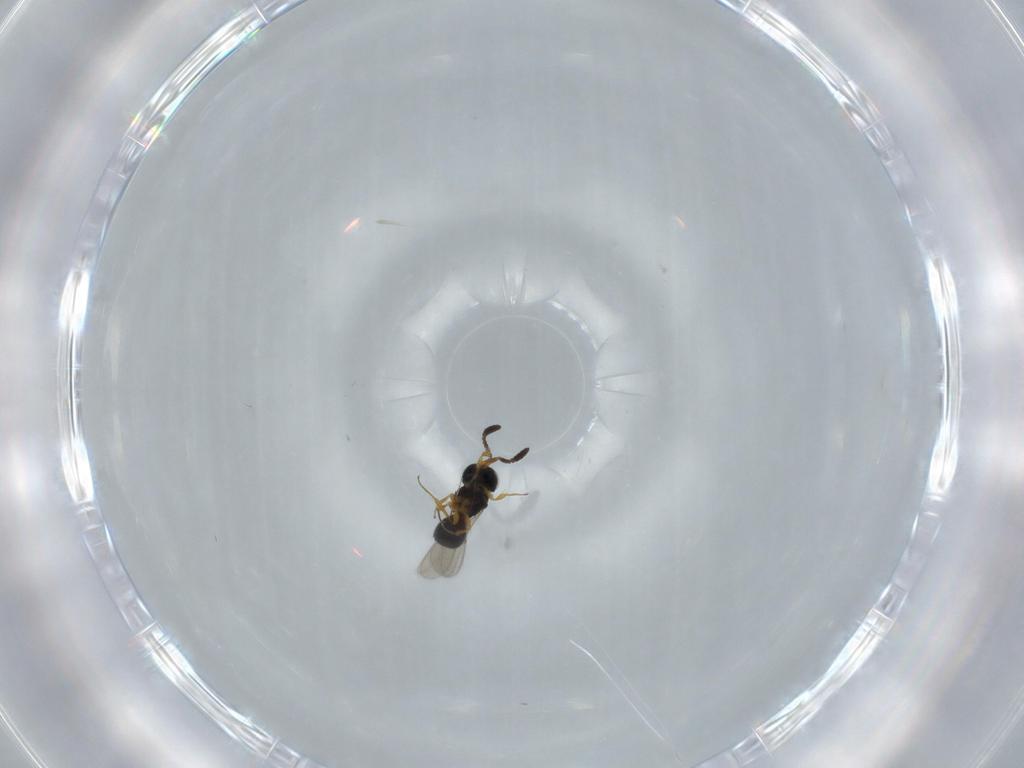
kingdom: Animalia
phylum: Arthropoda
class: Insecta
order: Hymenoptera
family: Scelionidae
